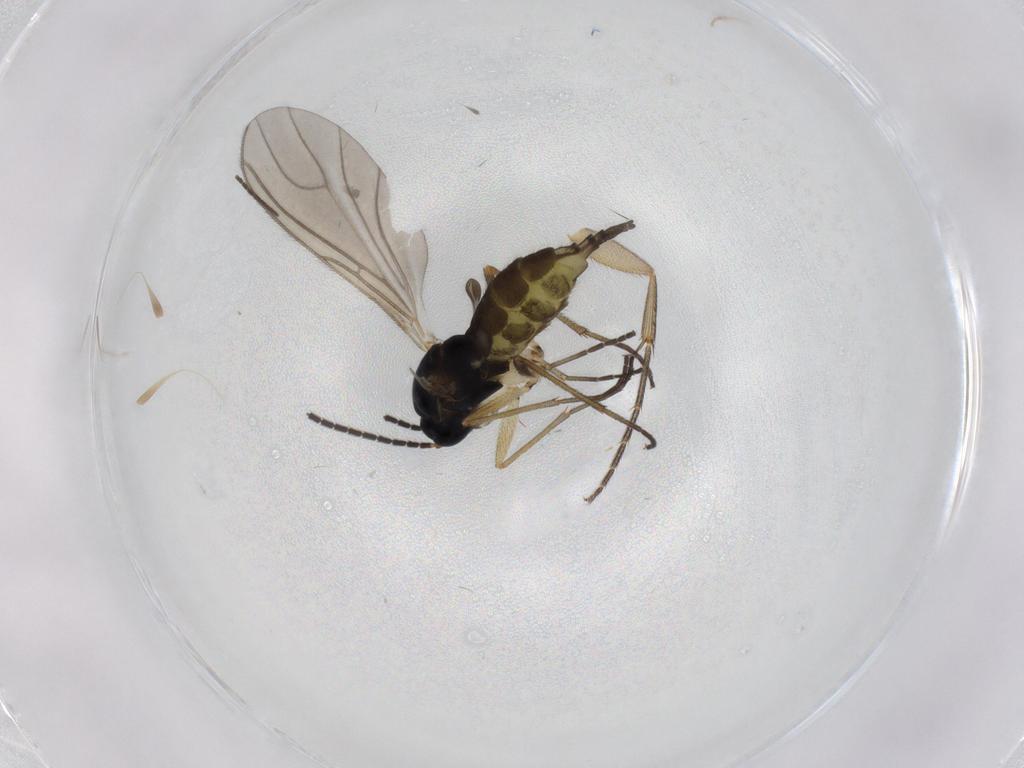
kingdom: Animalia
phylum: Arthropoda
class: Insecta
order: Diptera
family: Sciaridae
